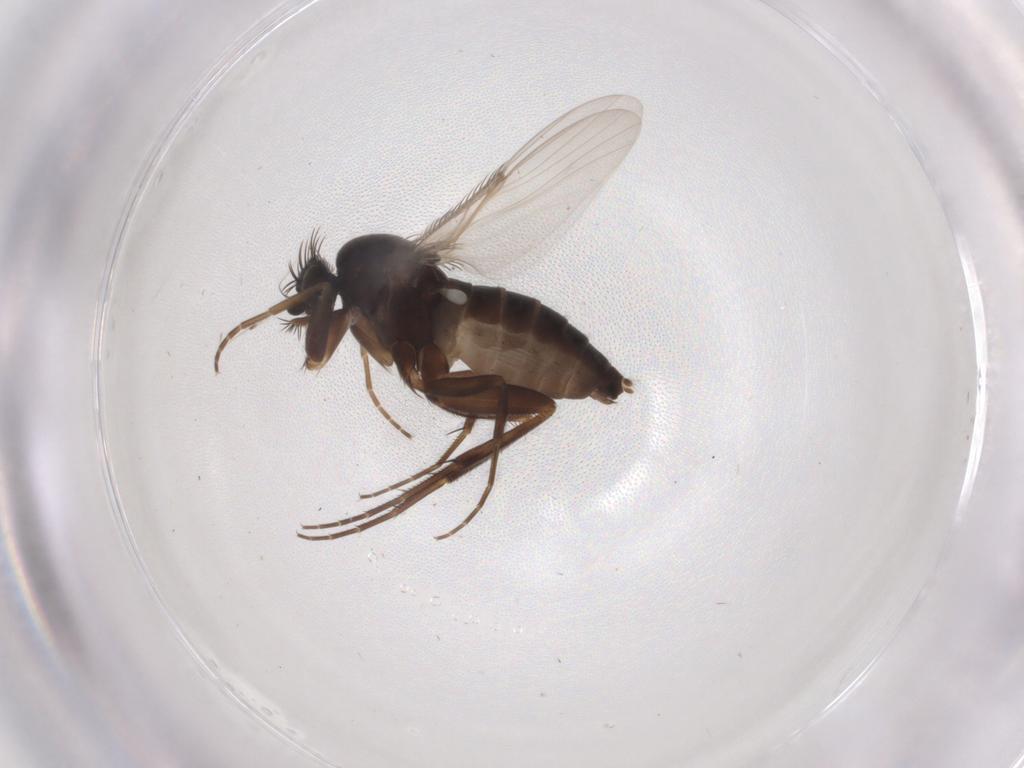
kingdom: Animalia
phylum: Arthropoda
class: Insecta
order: Diptera
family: Phoridae
